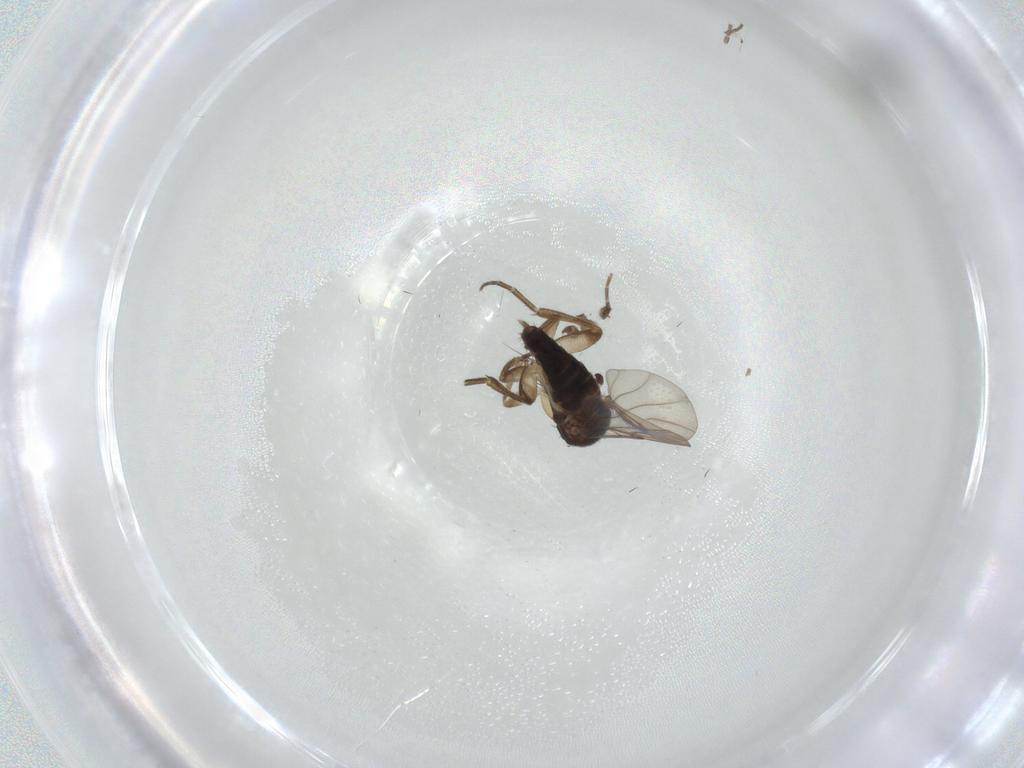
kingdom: Animalia
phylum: Arthropoda
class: Insecta
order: Diptera
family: Phoridae
